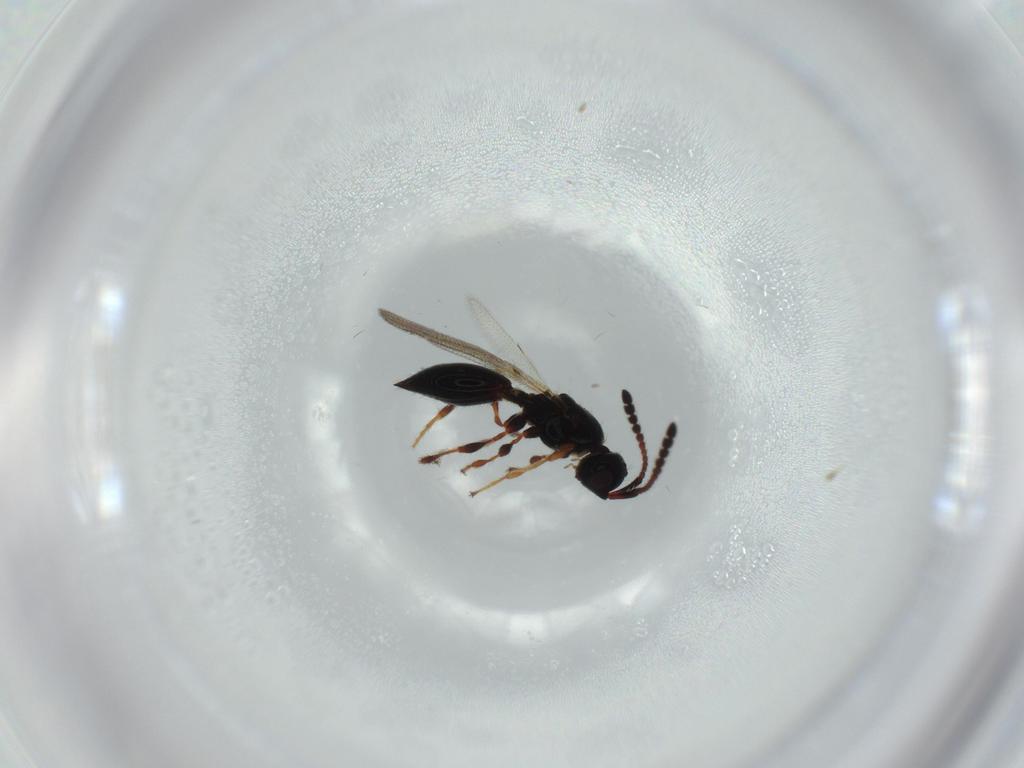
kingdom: Animalia
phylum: Arthropoda
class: Insecta
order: Hymenoptera
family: Diapriidae
